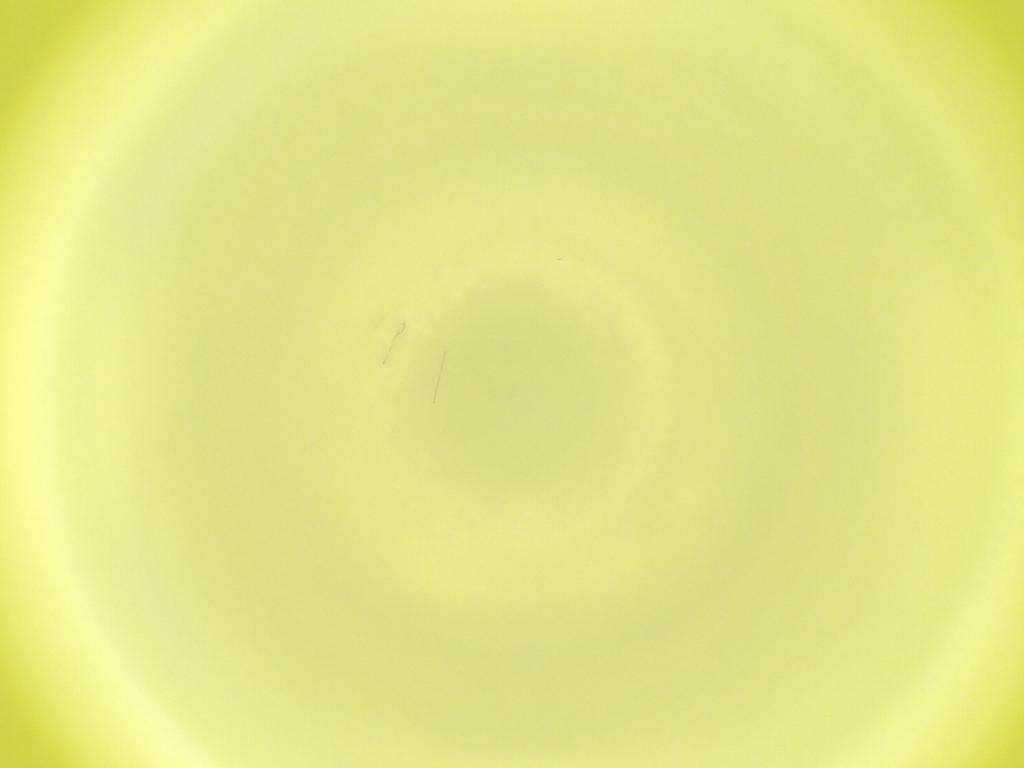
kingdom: Animalia
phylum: Arthropoda
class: Insecta
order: Diptera
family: Cecidomyiidae
